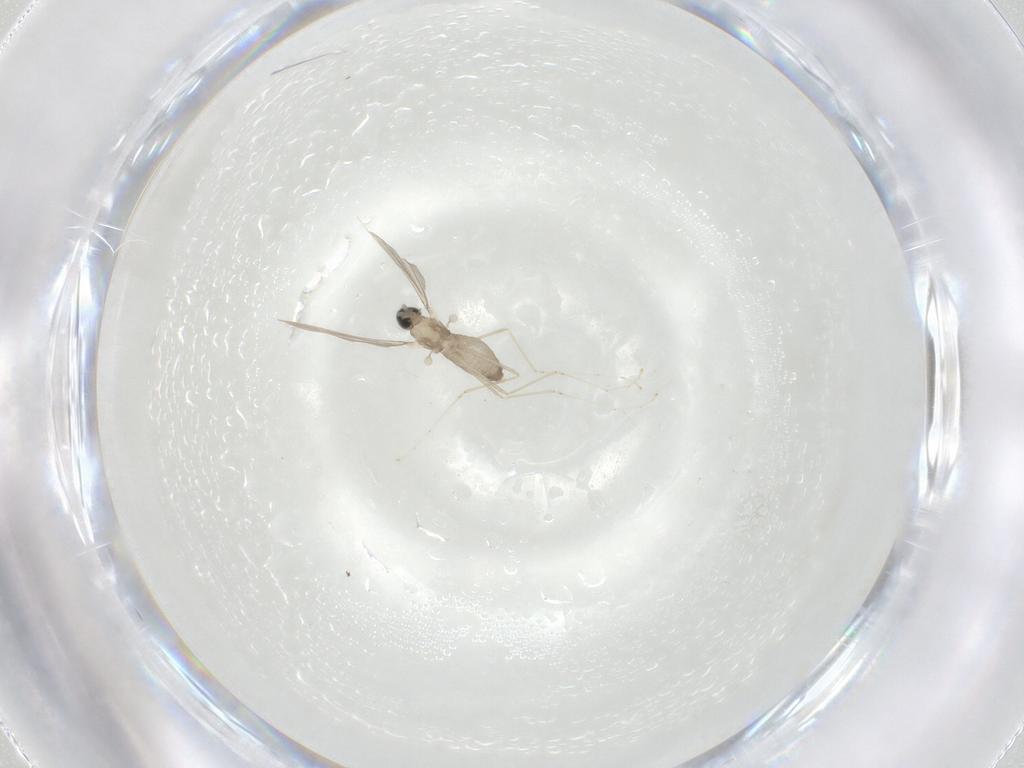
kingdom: Animalia
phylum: Arthropoda
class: Insecta
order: Diptera
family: Cecidomyiidae
